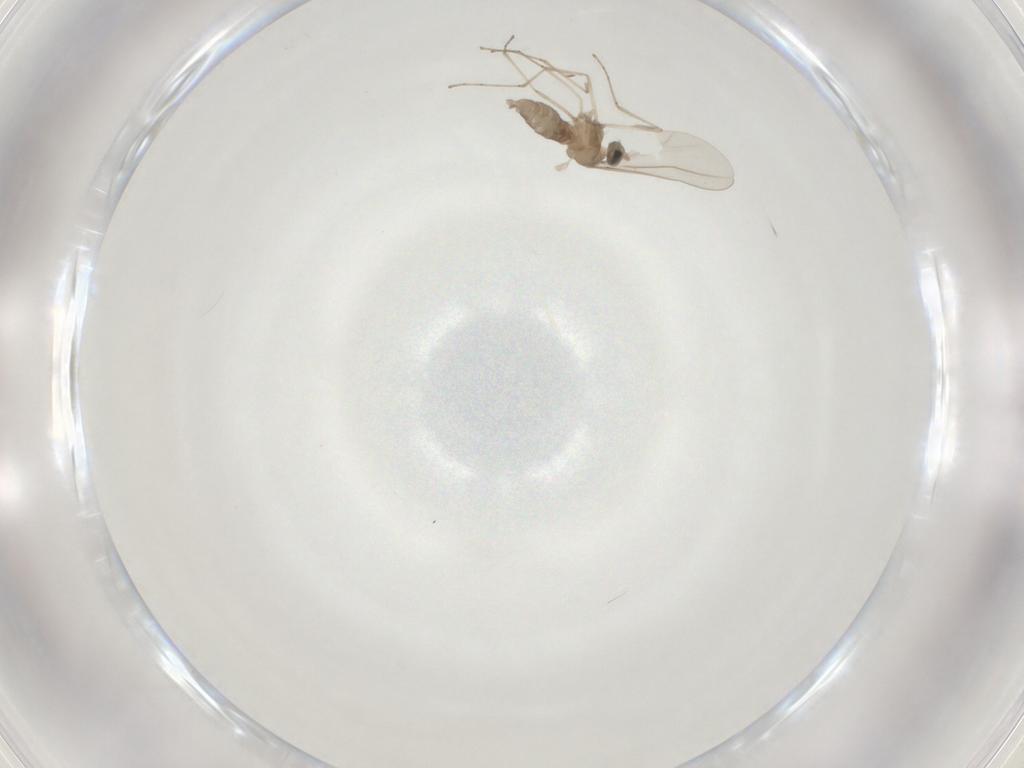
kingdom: Animalia
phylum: Arthropoda
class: Insecta
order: Diptera
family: Cecidomyiidae
